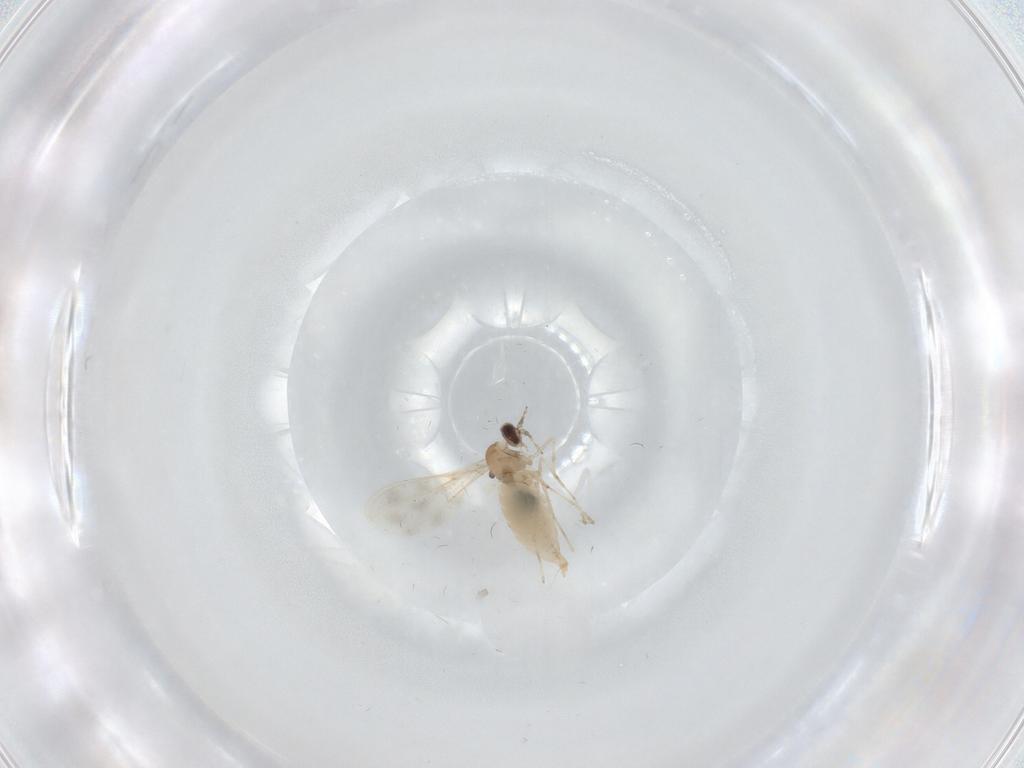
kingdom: Animalia
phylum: Arthropoda
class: Insecta
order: Diptera
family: Chironomidae
